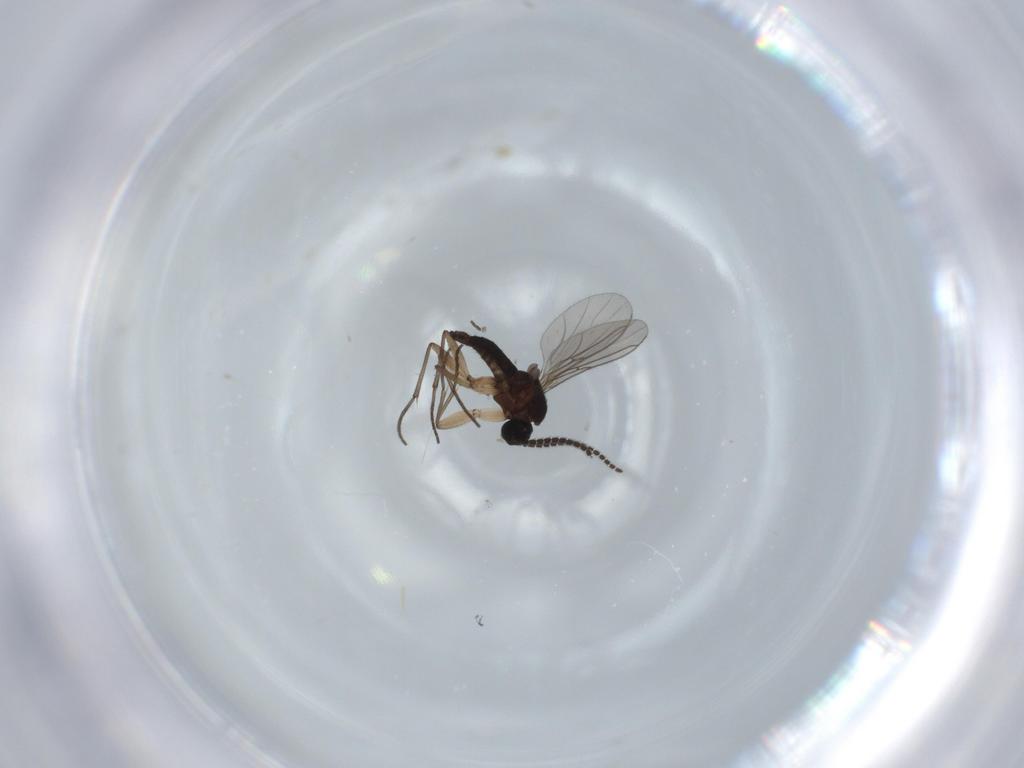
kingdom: Animalia
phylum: Arthropoda
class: Insecta
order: Diptera
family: Sciaridae
